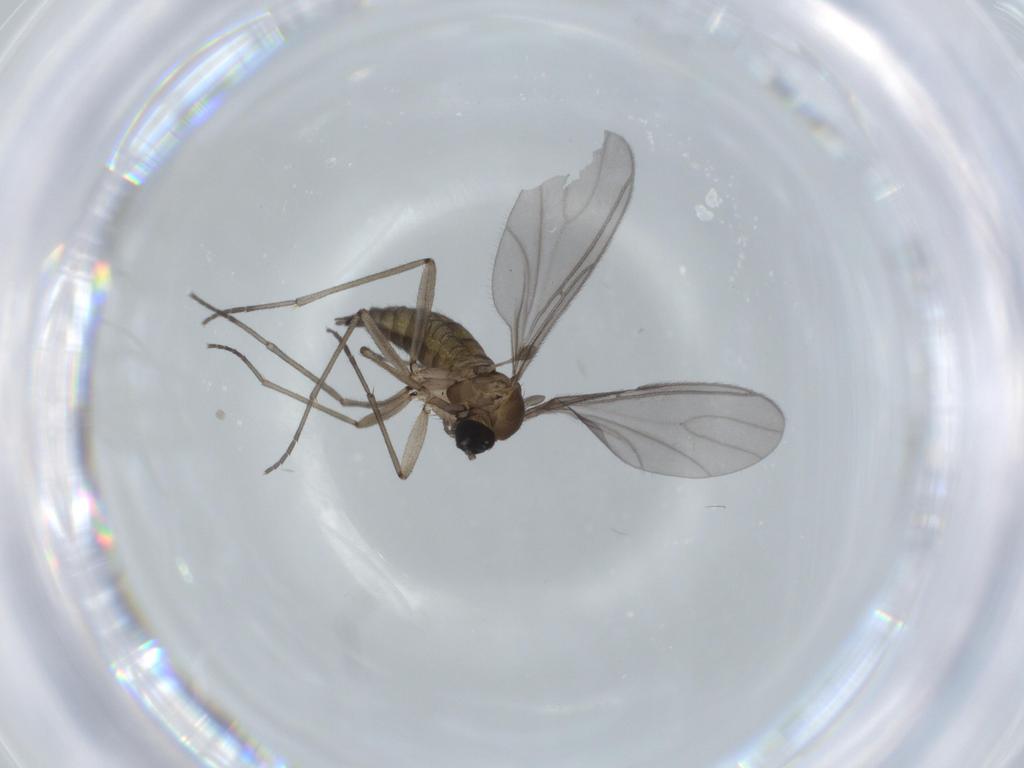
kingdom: Animalia
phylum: Arthropoda
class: Insecta
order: Diptera
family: Sciaridae
